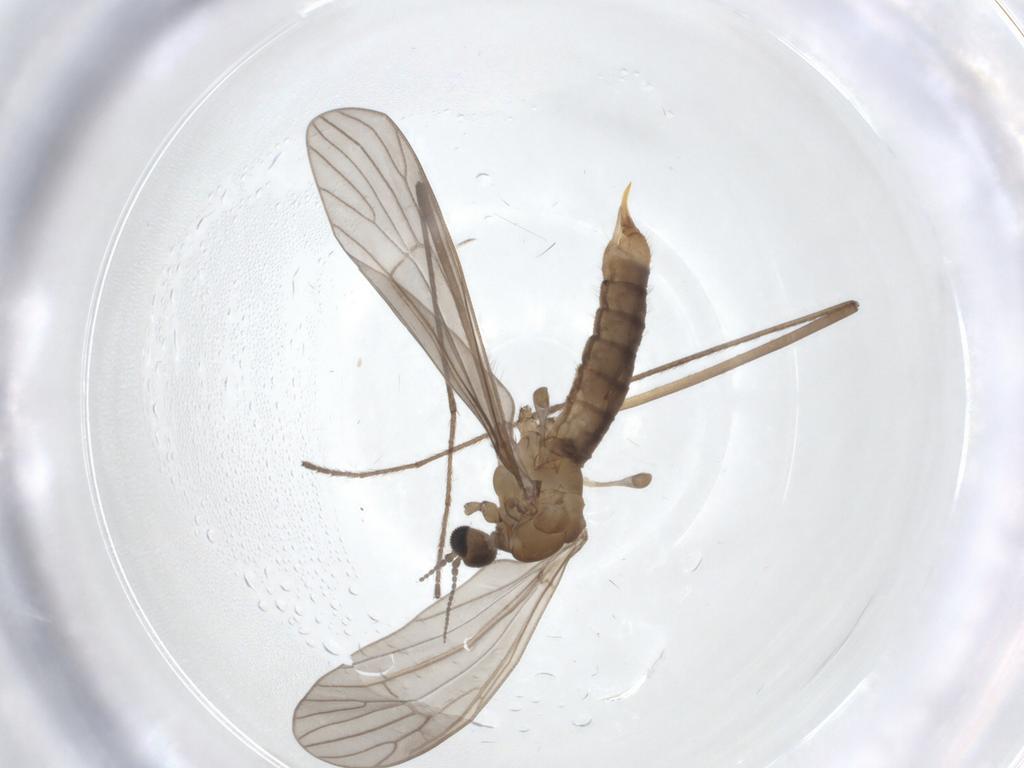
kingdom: Animalia
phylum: Arthropoda
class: Insecta
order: Diptera
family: Limoniidae
